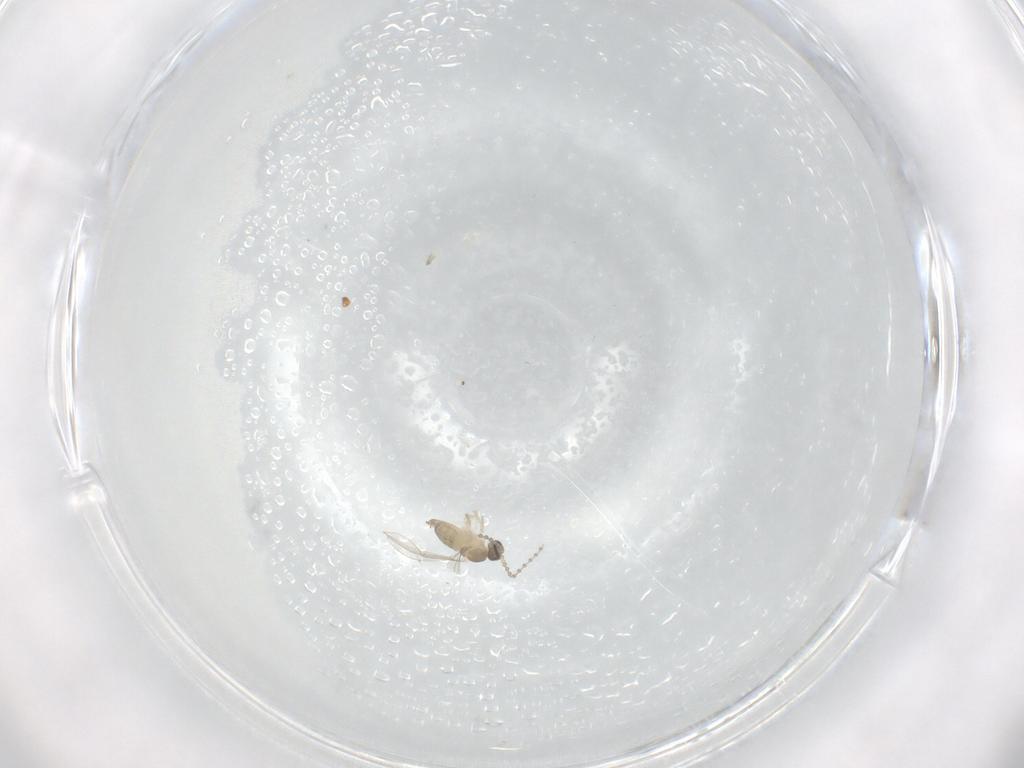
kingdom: Animalia
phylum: Arthropoda
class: Insecta
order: Diptera
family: Cecidomyiidae
